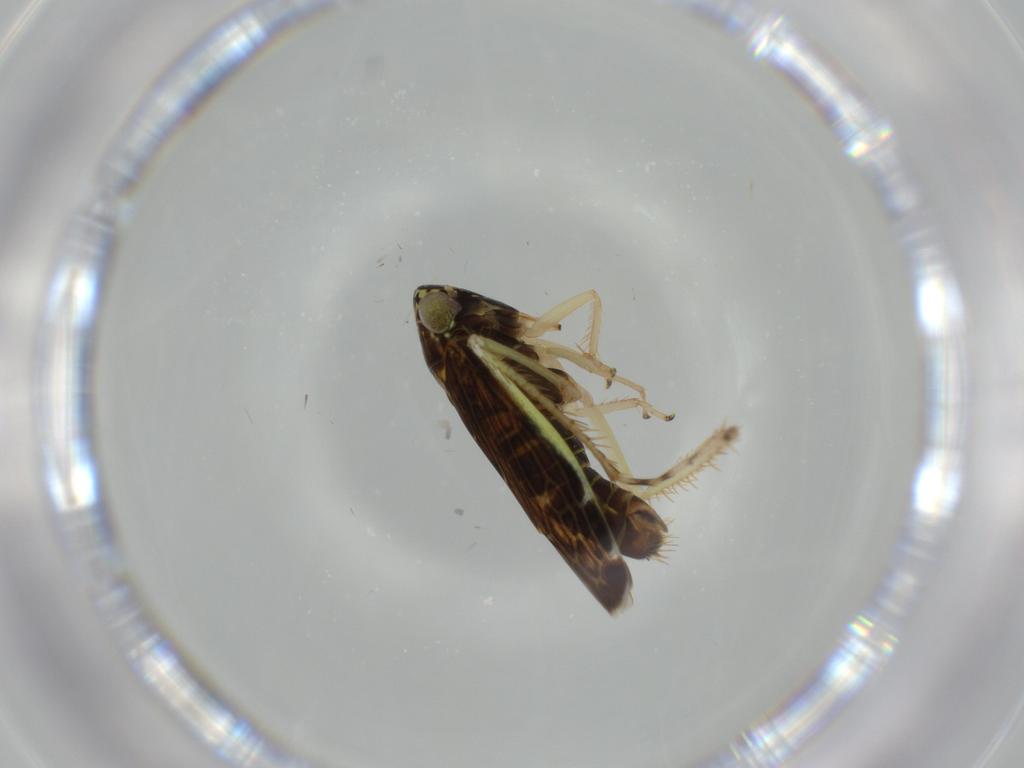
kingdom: Animalia
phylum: Arthropoda
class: Insecta
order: Hemiptera
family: Cicadellidae
